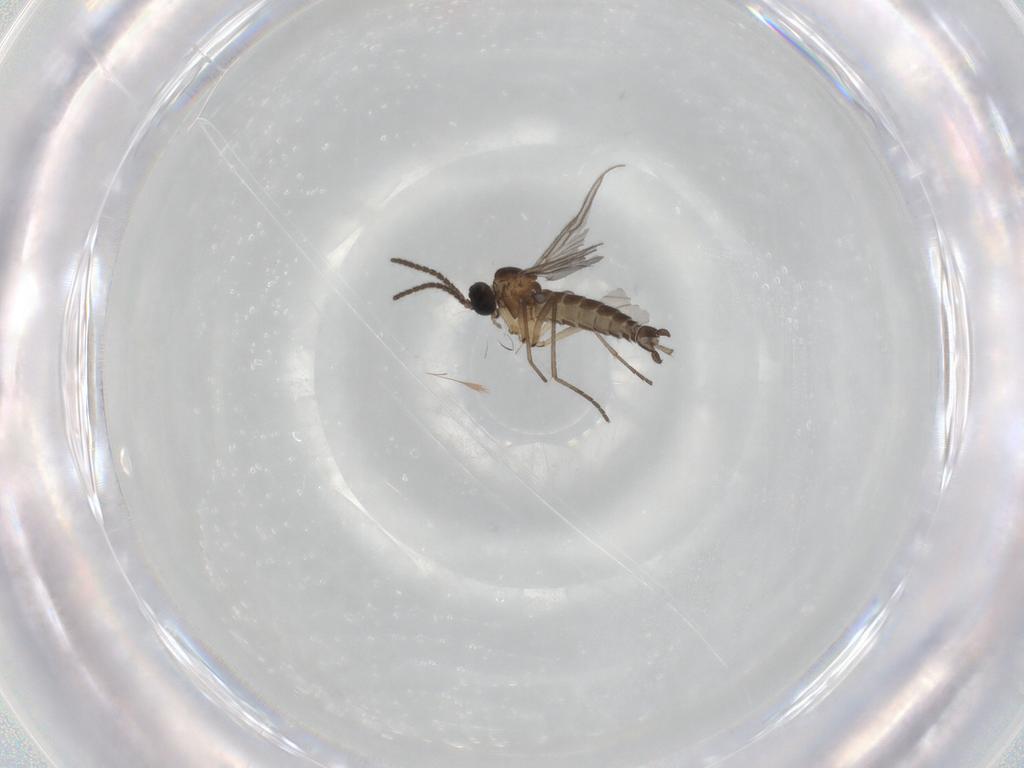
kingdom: Animalia
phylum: Arthropoda
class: Insecta
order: Diptera
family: Sciaridae
